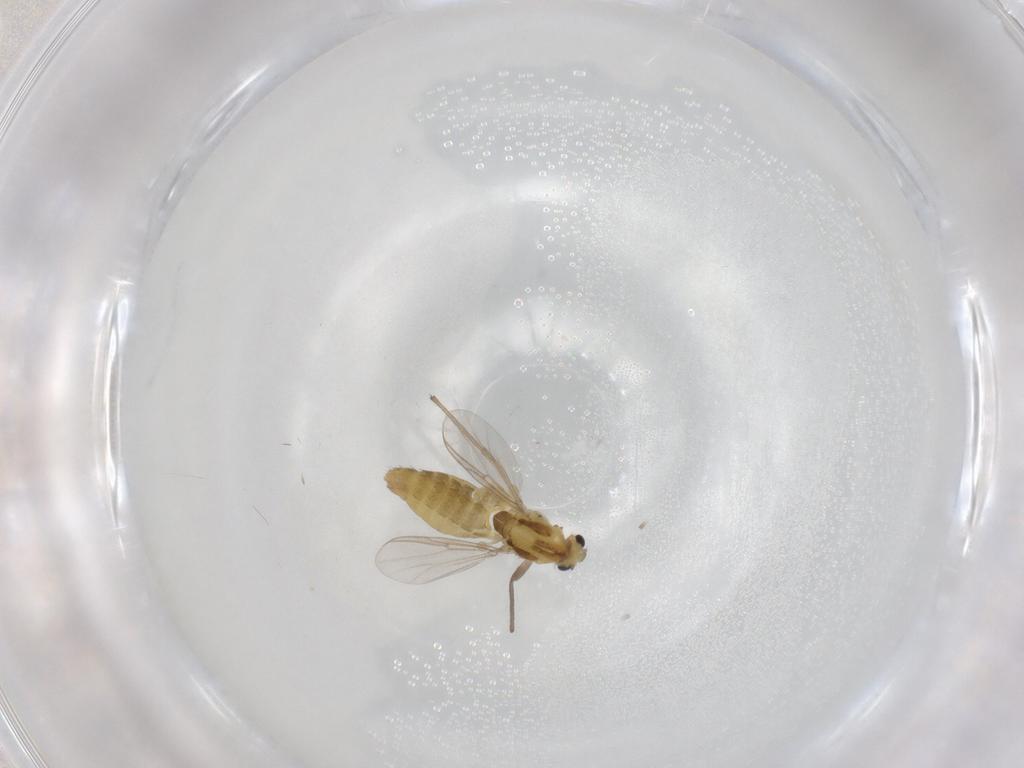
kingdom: Animalia
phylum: Arthropoda
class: Insecta
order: Diptera
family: Chironomidae
